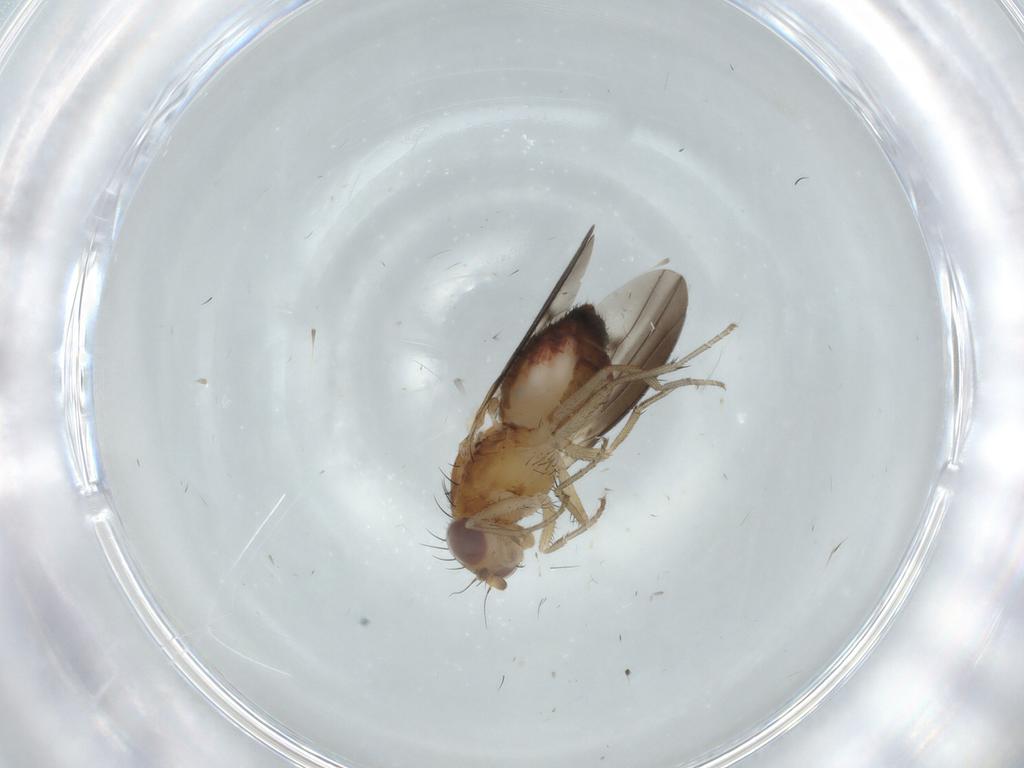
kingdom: Animalia
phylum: Arthropoda
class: Insecta
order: Diptera
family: Heleomyzidae
